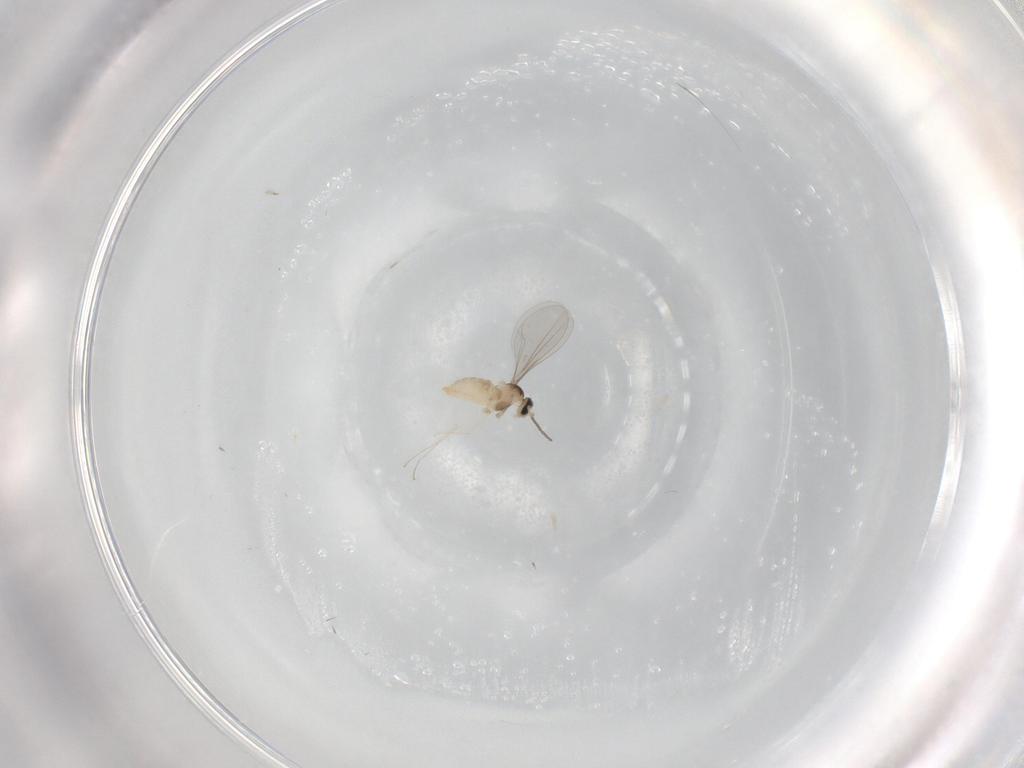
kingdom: Animalia
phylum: Arthropoda
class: Insecta
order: Diptera
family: Cecidomyiidae
